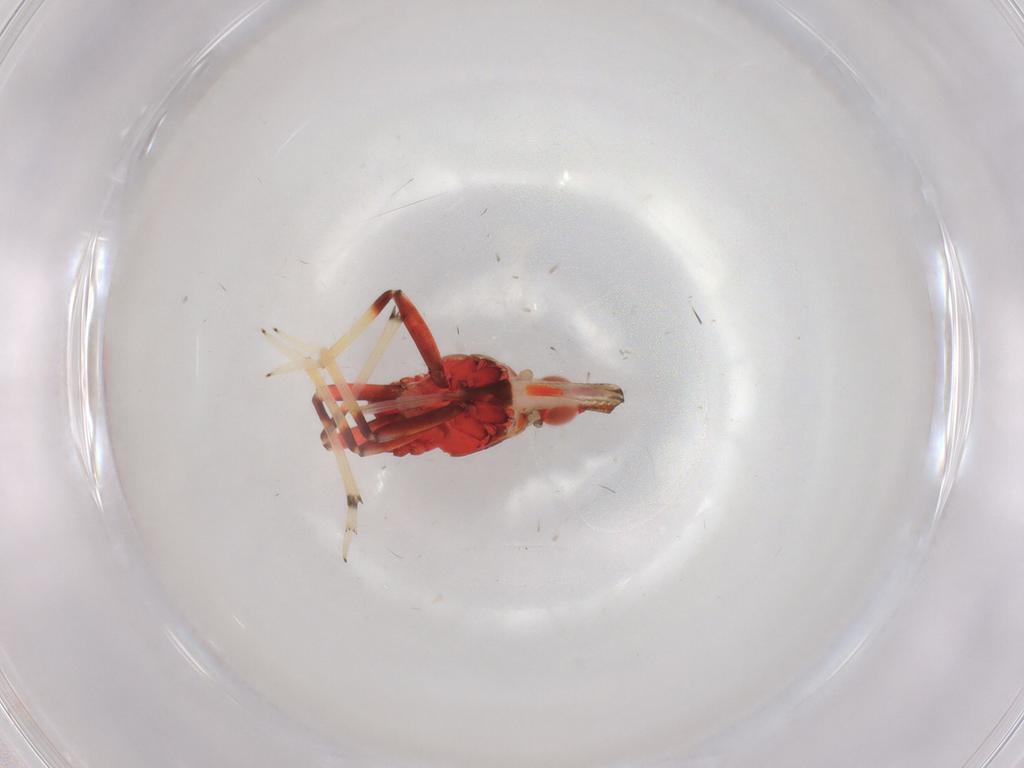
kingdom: Animalia
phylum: Arthropoda
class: Insecta
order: Hemiptera
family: Fulgoroidea_incertae_sedis
